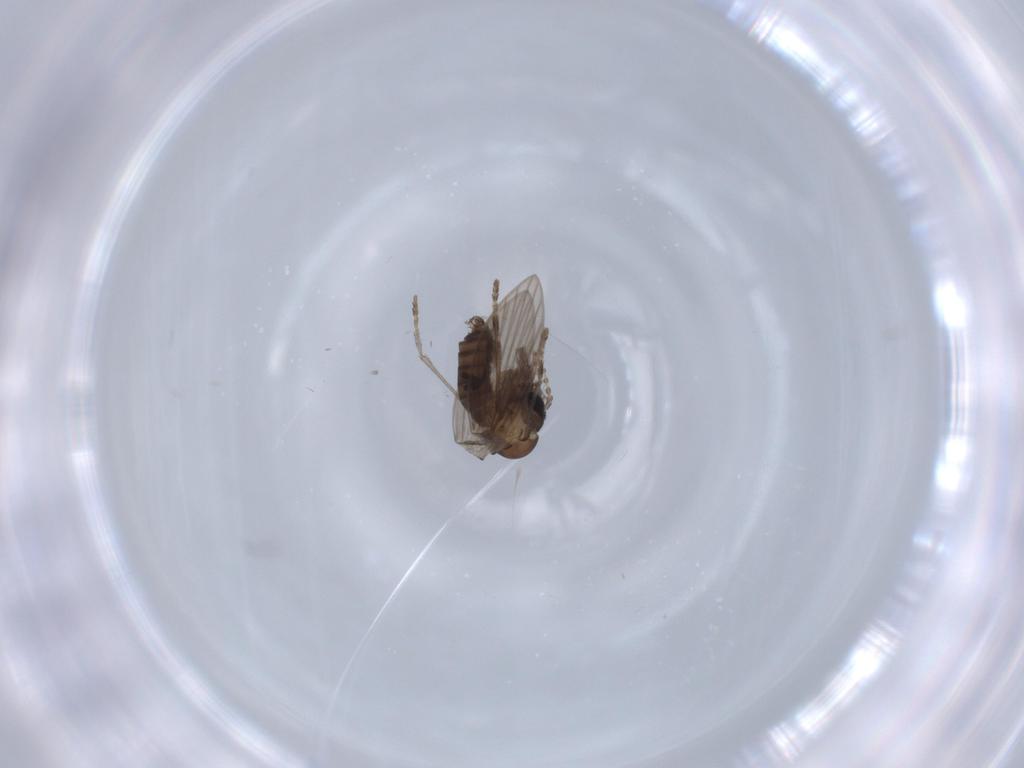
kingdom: Animalia
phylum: Arthropoda
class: Insecta
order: Diptera
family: Psychodidae
